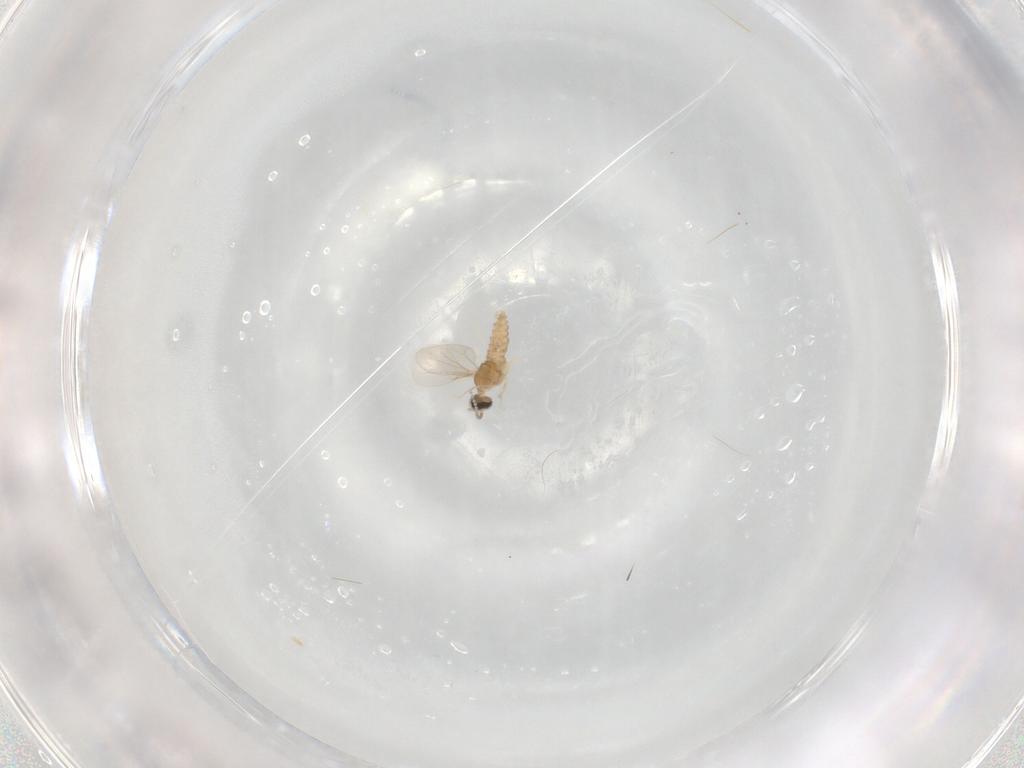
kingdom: Animalia
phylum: Arthropoda
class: Insecta
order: Diptera
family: Cecidomyiidae
